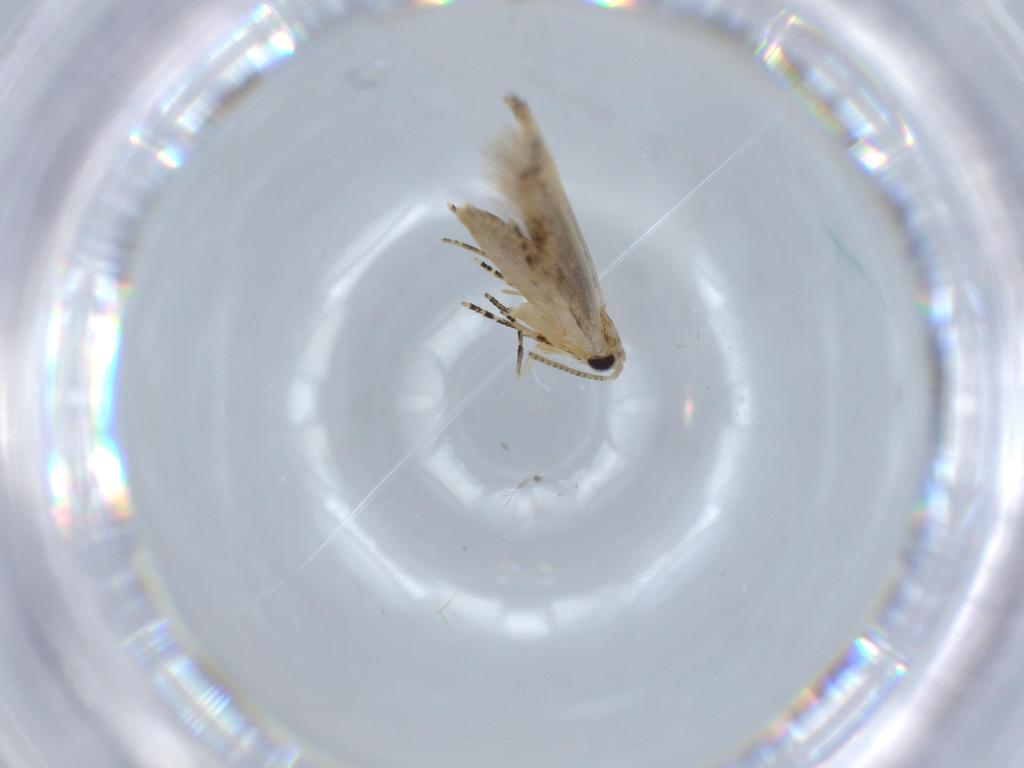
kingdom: Animalia
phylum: Arthropoda
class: Insecta
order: Lepidoptera
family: Bucculatricidae
